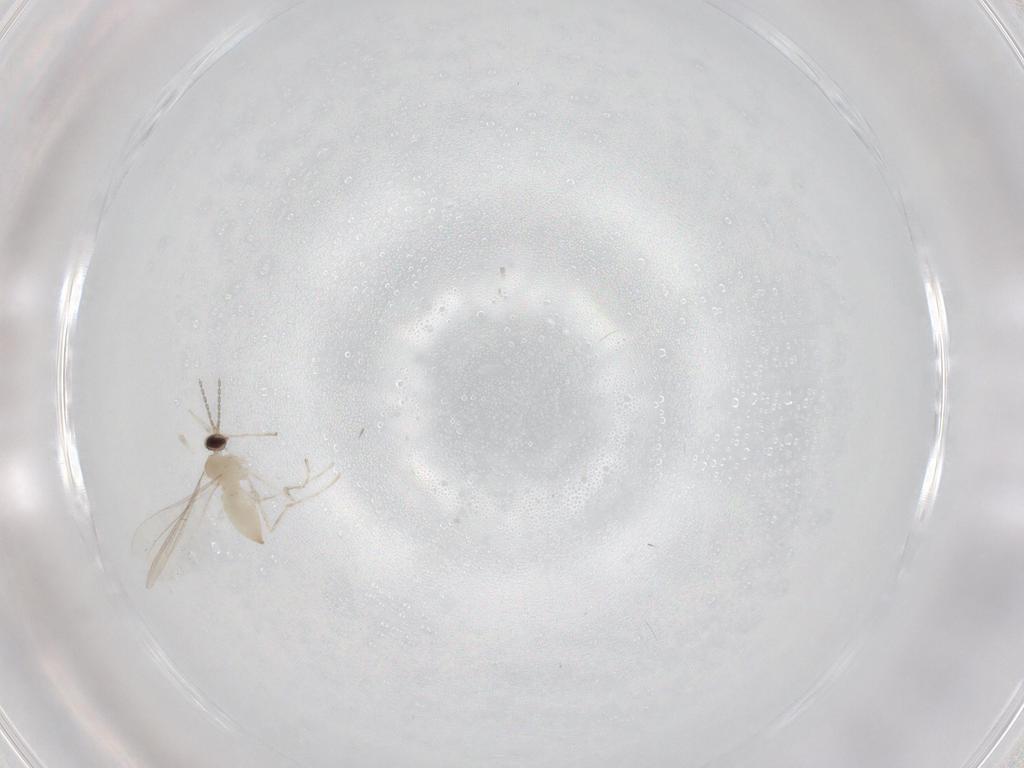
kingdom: Animalia
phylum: Arthropoda
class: Insecta
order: Diptera
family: Cecidomyiidae
